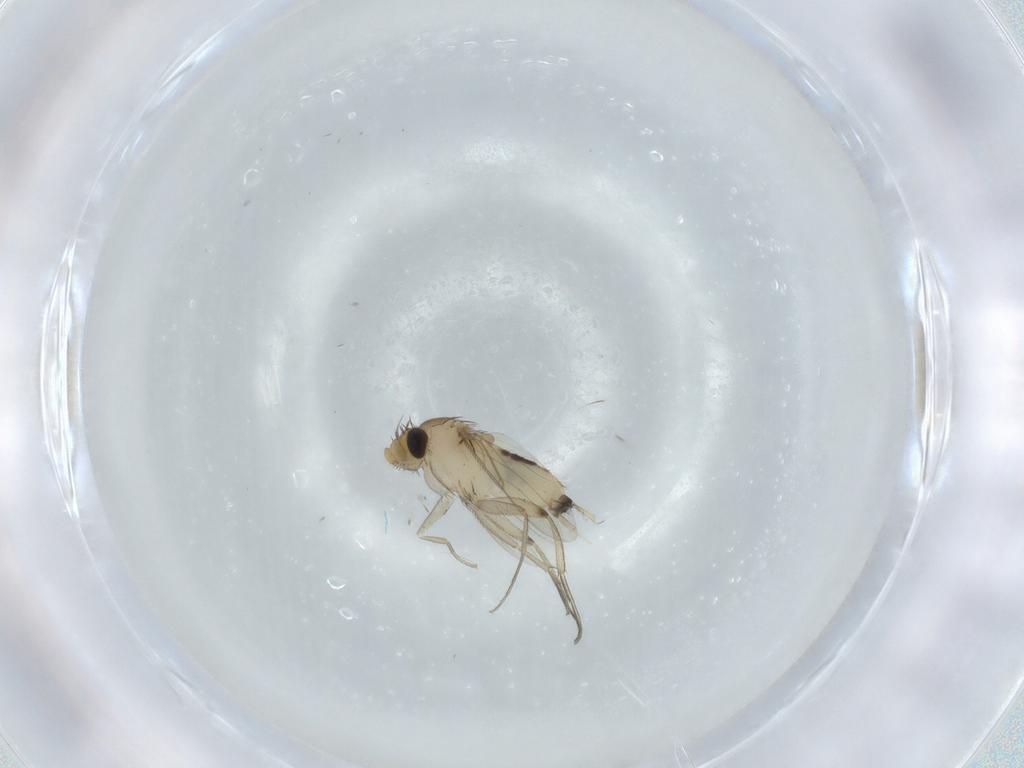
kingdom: Animalia
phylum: Arthropoda
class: Insecta
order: Diptera
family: Phoridae
